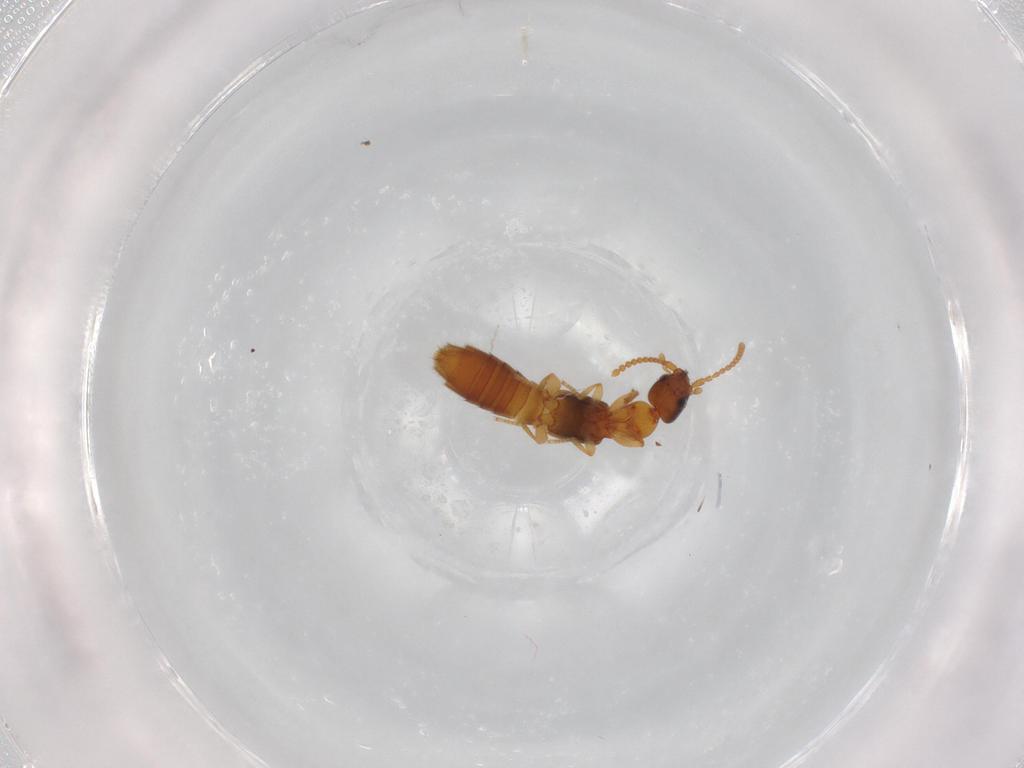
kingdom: Animalia
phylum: Arthropoda
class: Insecta
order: Coleoptera
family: Staphylinidae
